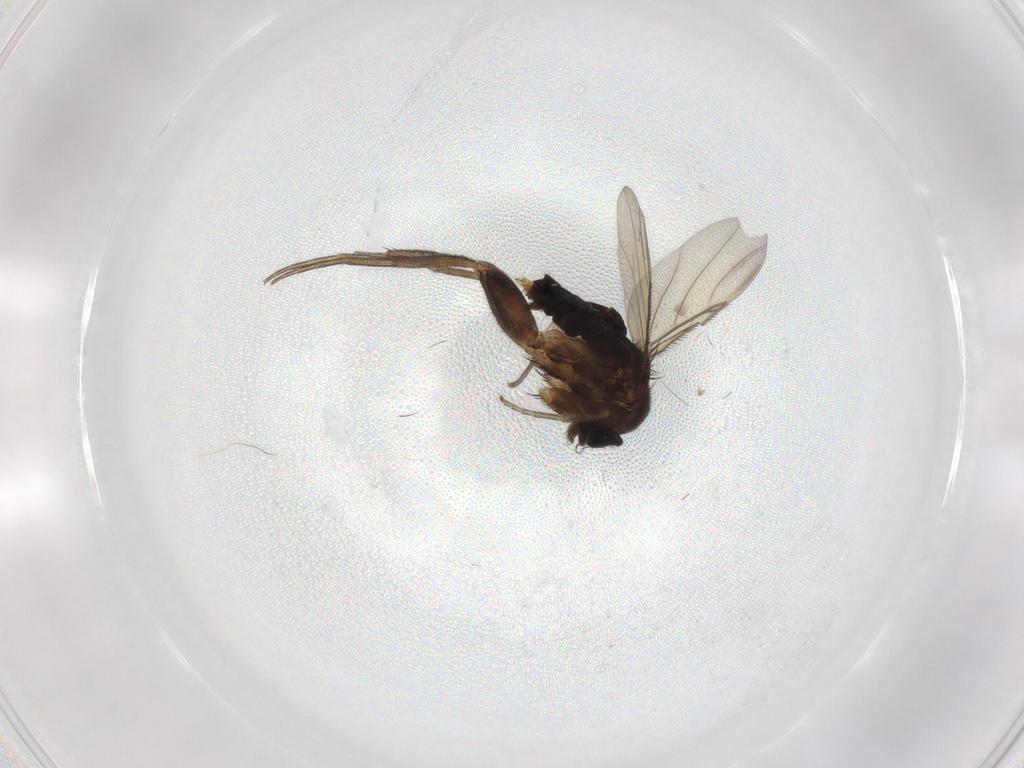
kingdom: Animalia
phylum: Arthropoda
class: Insecta
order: Diptera
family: Phoridae
